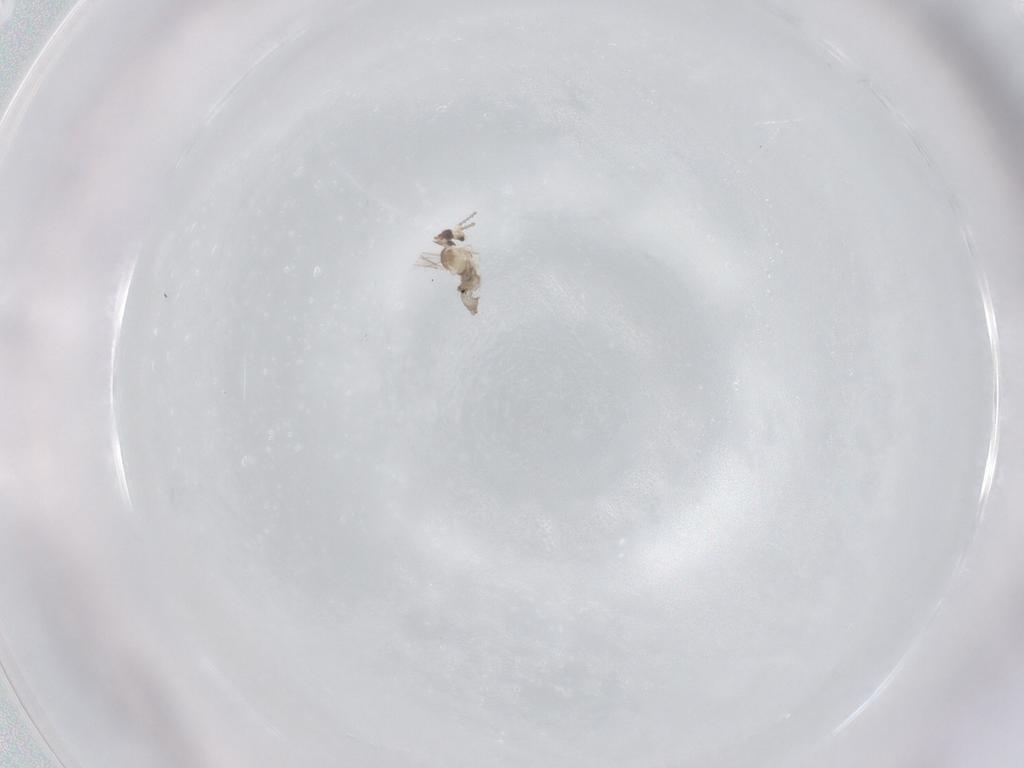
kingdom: Animalia
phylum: Arthropoda
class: Insecta
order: Diptera
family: Cecidomyiidae
